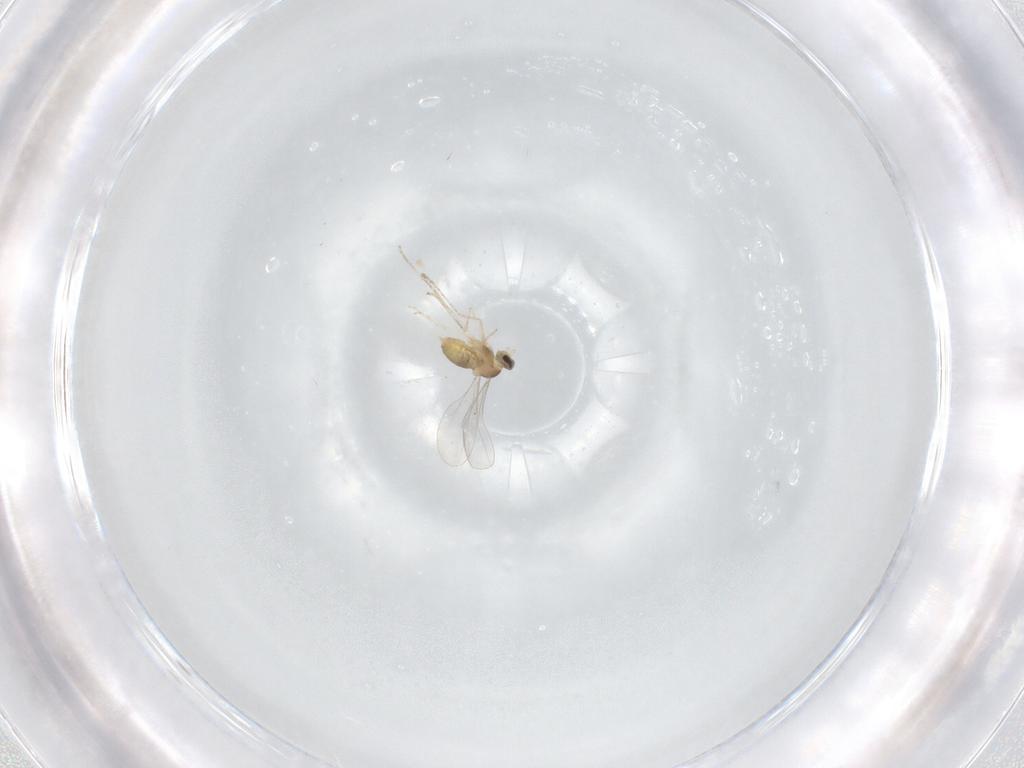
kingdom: Animalia
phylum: Arthropoda
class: Insecta
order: Diptera
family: Cecidomyiidae
